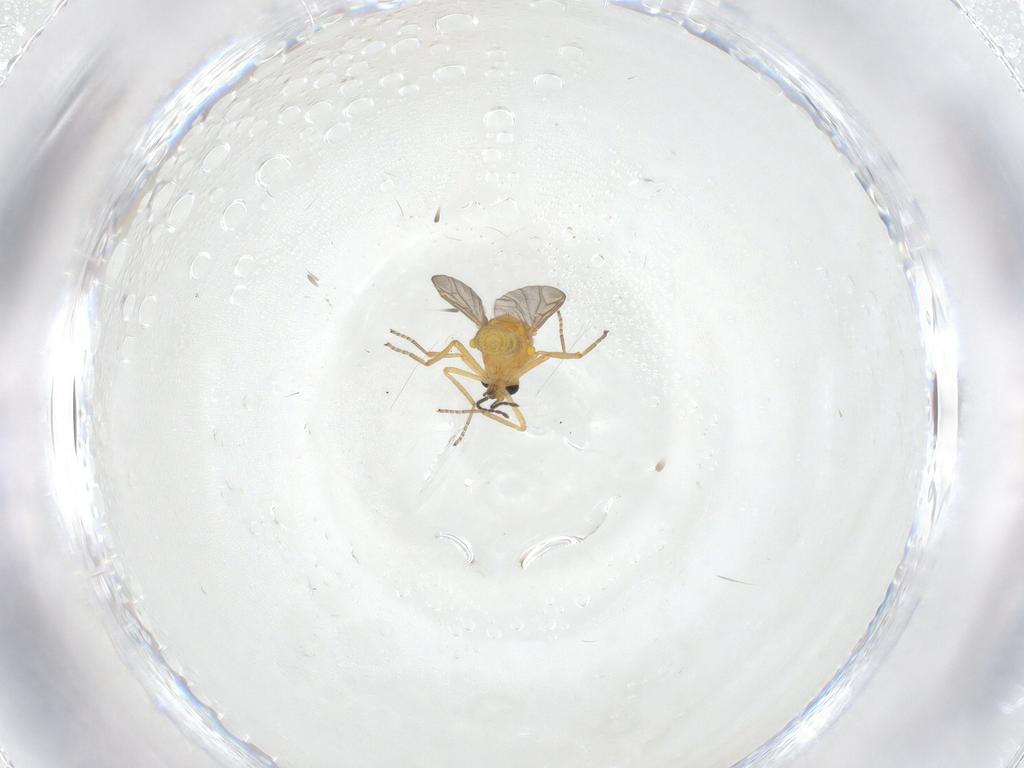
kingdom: Animalia
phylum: Arthropoda
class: Insecta
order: Diptera
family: Ceratopogonidae
